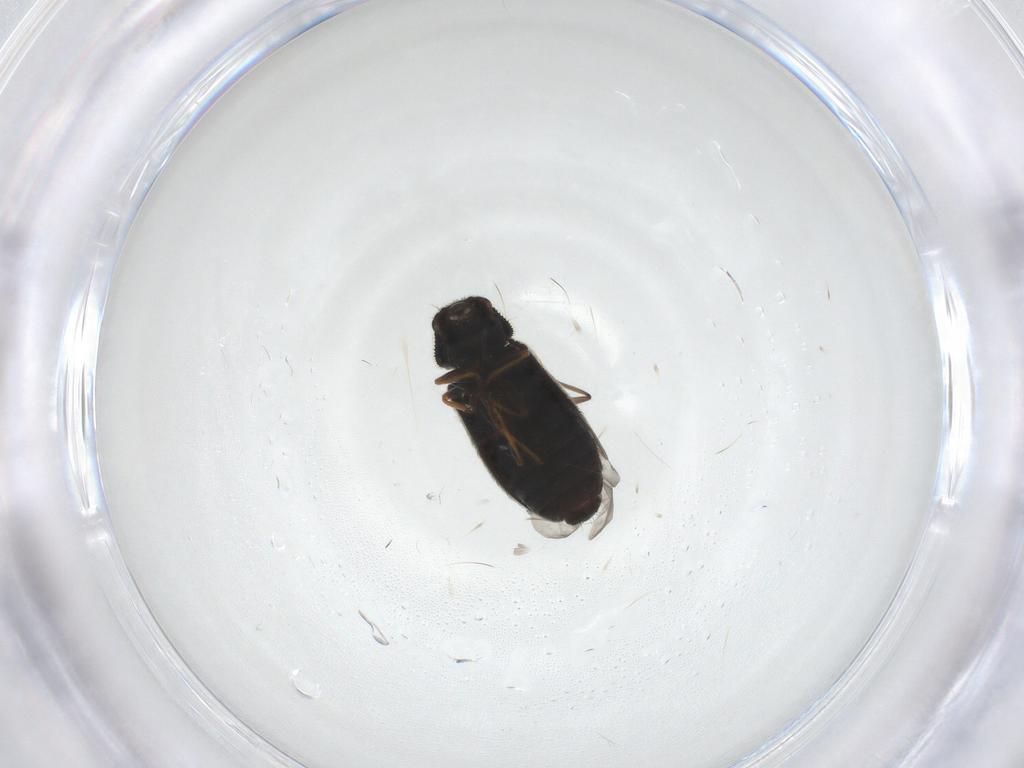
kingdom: Animalia
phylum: Arthropoda
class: Insecta
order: Coleoptera
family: Melyridae
